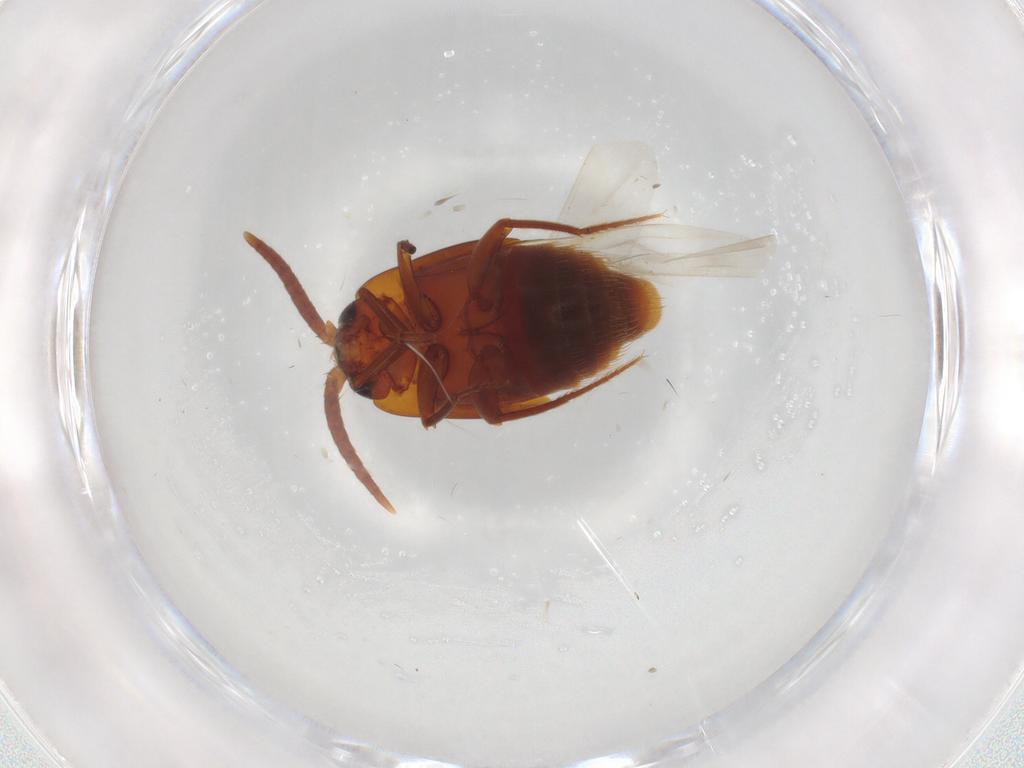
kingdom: Animalia
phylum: Arthropoda
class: Insecta
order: Coleoptera
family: Staphylinidae
